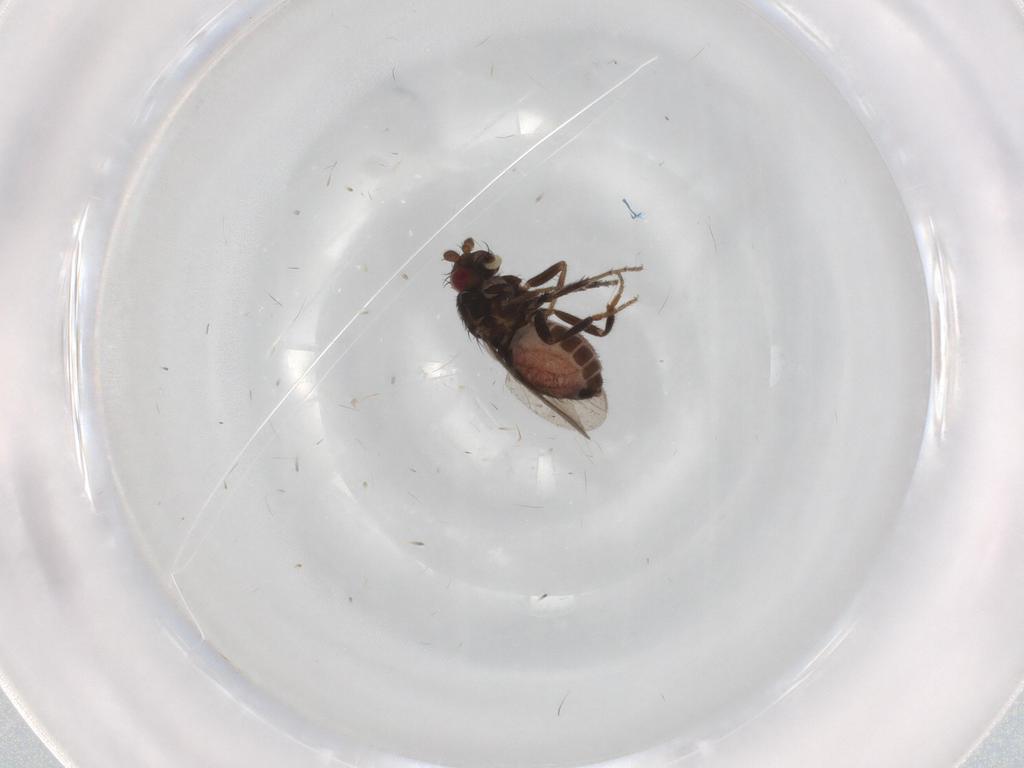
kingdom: Animalia
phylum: Arthropoda
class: Insecta
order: Diptera
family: Sphaeroceridae
